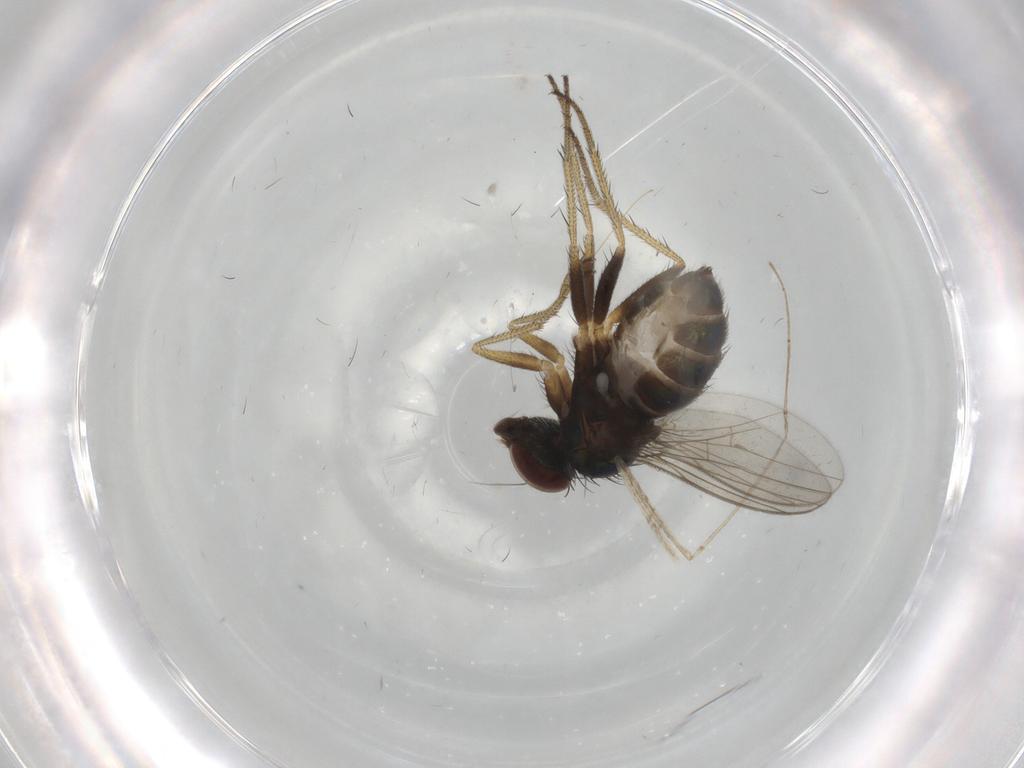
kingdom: Animalia
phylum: Arthropoda
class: Insecta
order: Diptera
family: Cecidomyiidae
